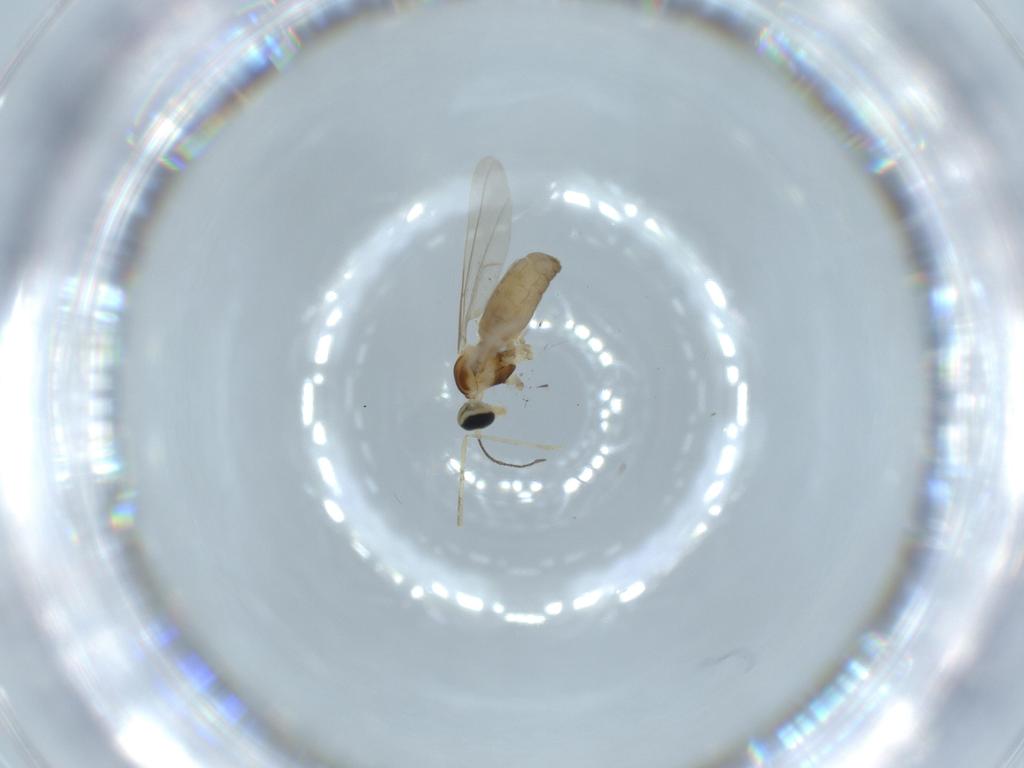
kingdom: Animalia
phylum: Arthropoda
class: Insecta
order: Diptera
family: Cecidomyiidae
